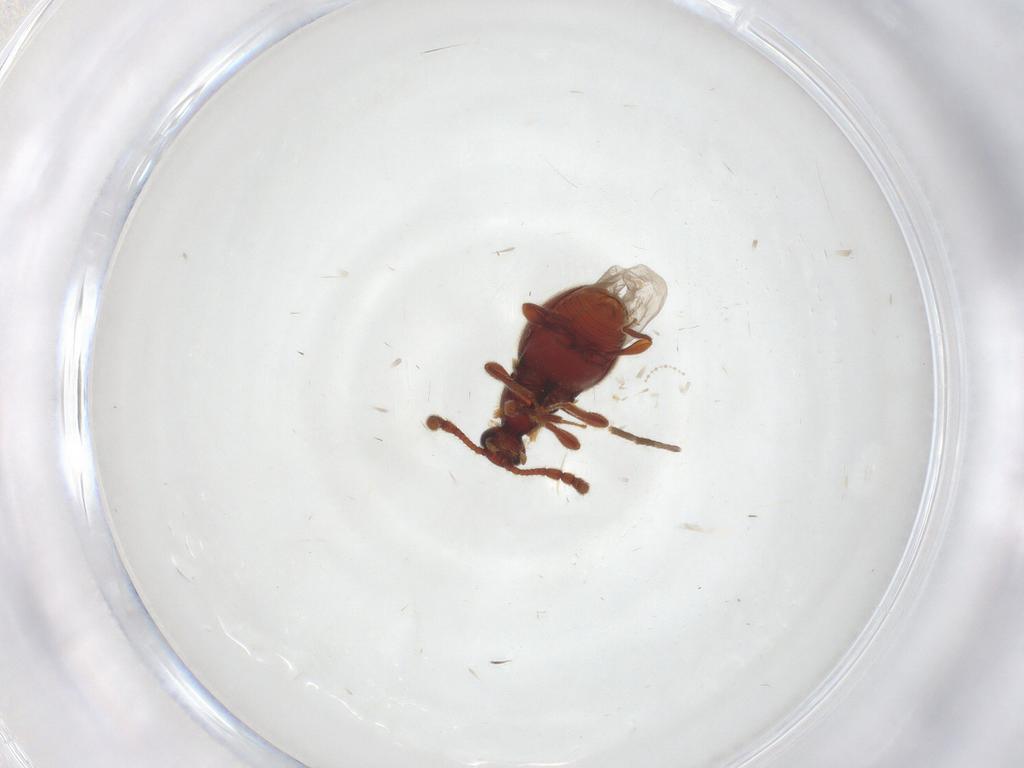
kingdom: Animalia
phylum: Arthropoda
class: Insecta
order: Coleoptera
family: Staphylinidae
